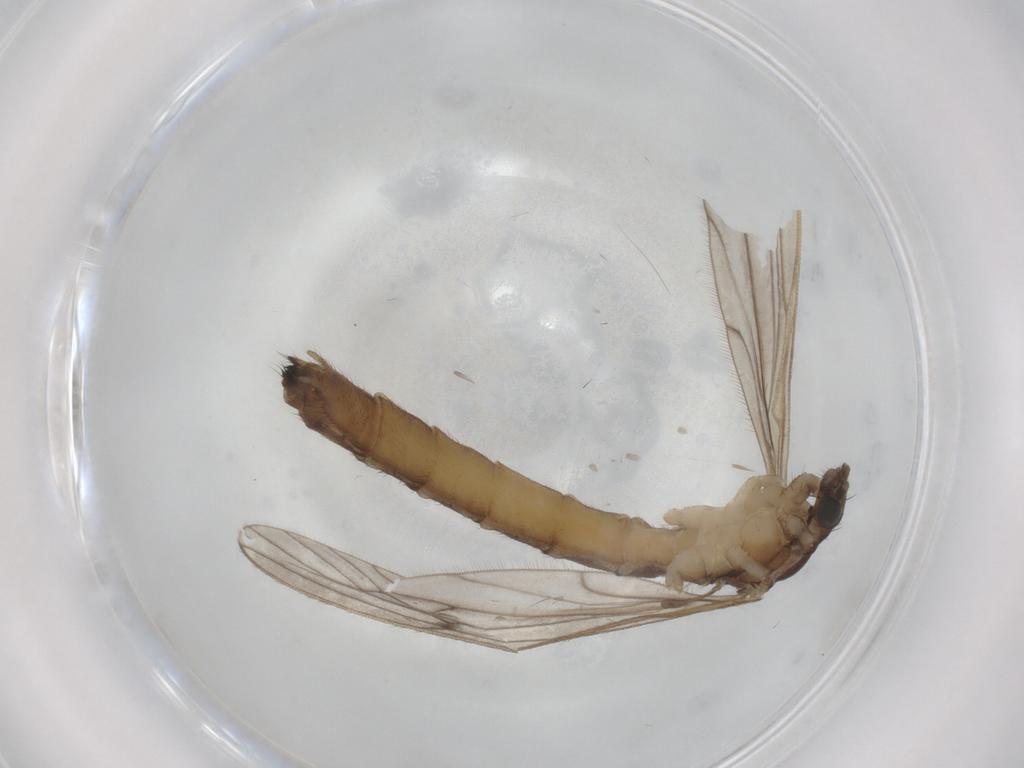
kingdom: Animalia
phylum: Arthropoda
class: Insecta
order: Diptera
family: Limoniidae
